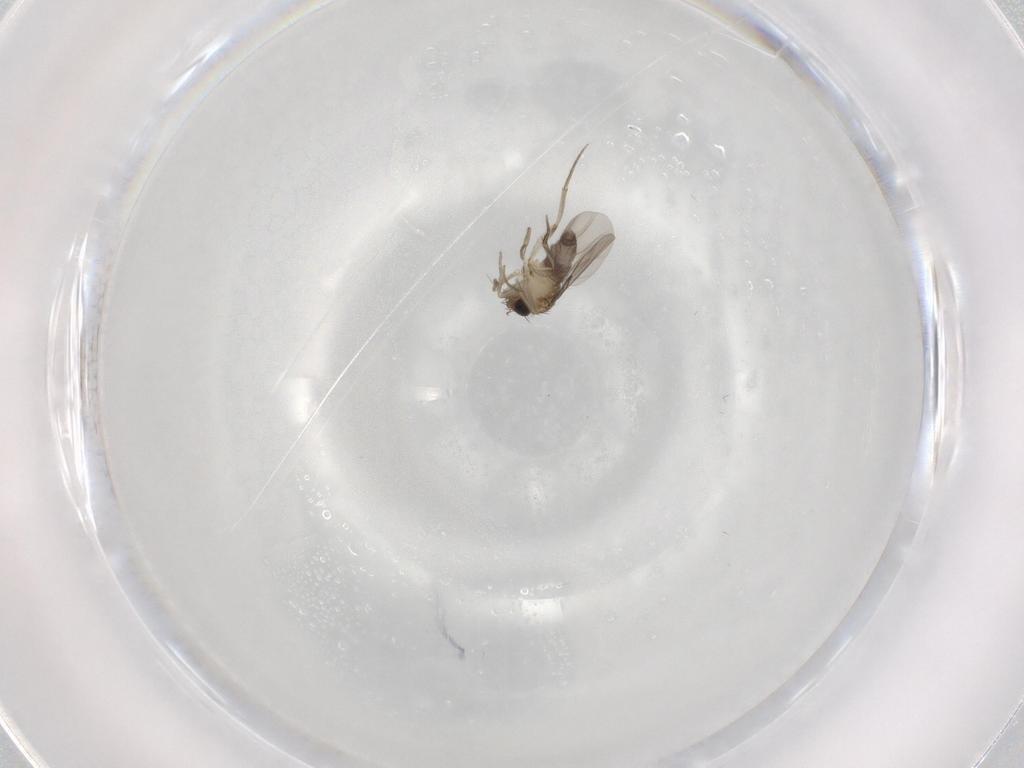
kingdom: Animalia
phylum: Arthropoda
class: Insecta
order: Diptera
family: Phoridae
